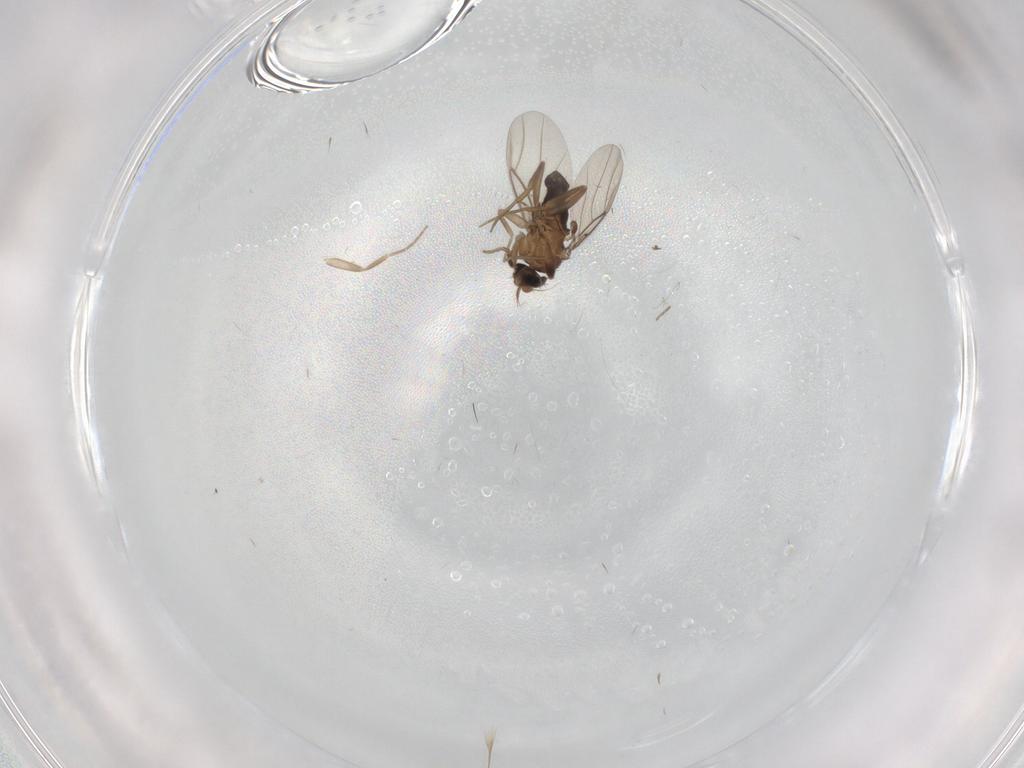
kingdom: Animalia
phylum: Arthropoda
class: Insecta
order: Diptera
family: Phoridae
